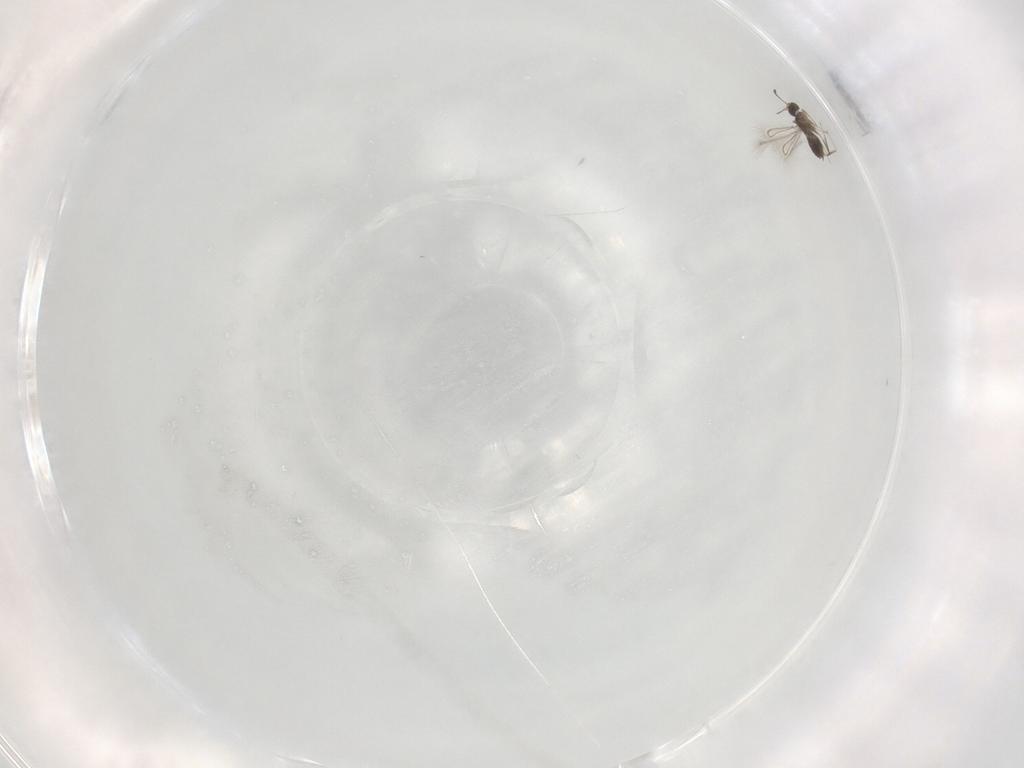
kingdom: Animalia
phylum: Arthropoda
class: Insecta
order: Hymenoptera
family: Mymaridae
